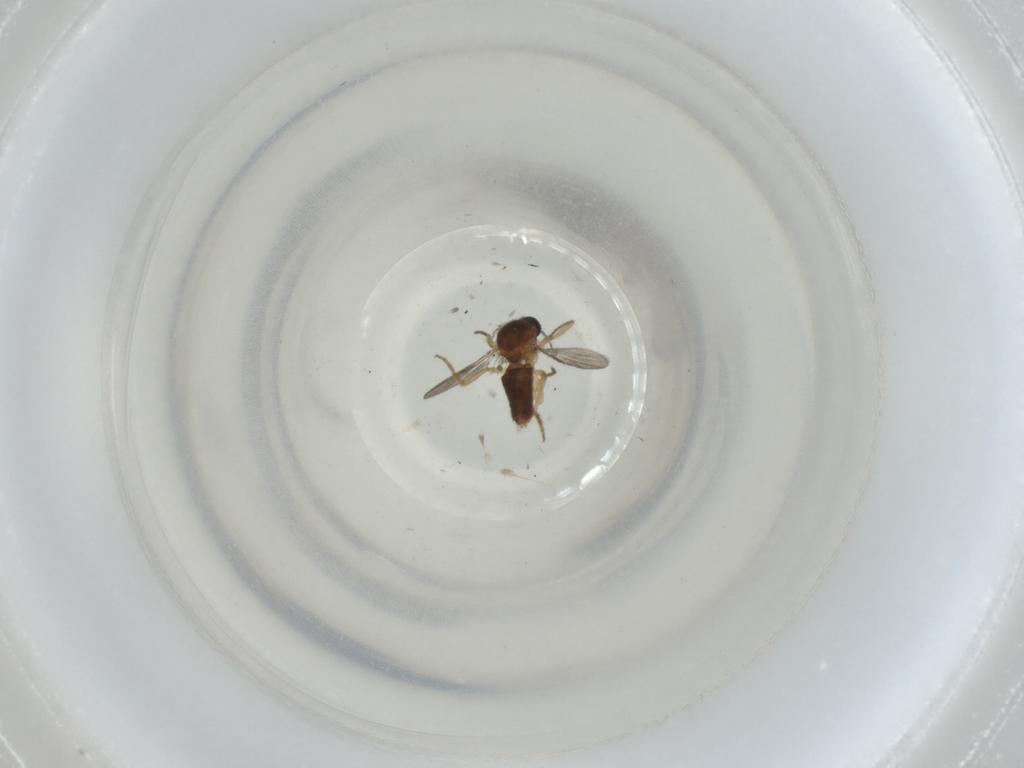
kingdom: Animalia
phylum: Arthropoda
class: Insecta
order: Diptera
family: Ceratopogonidae
